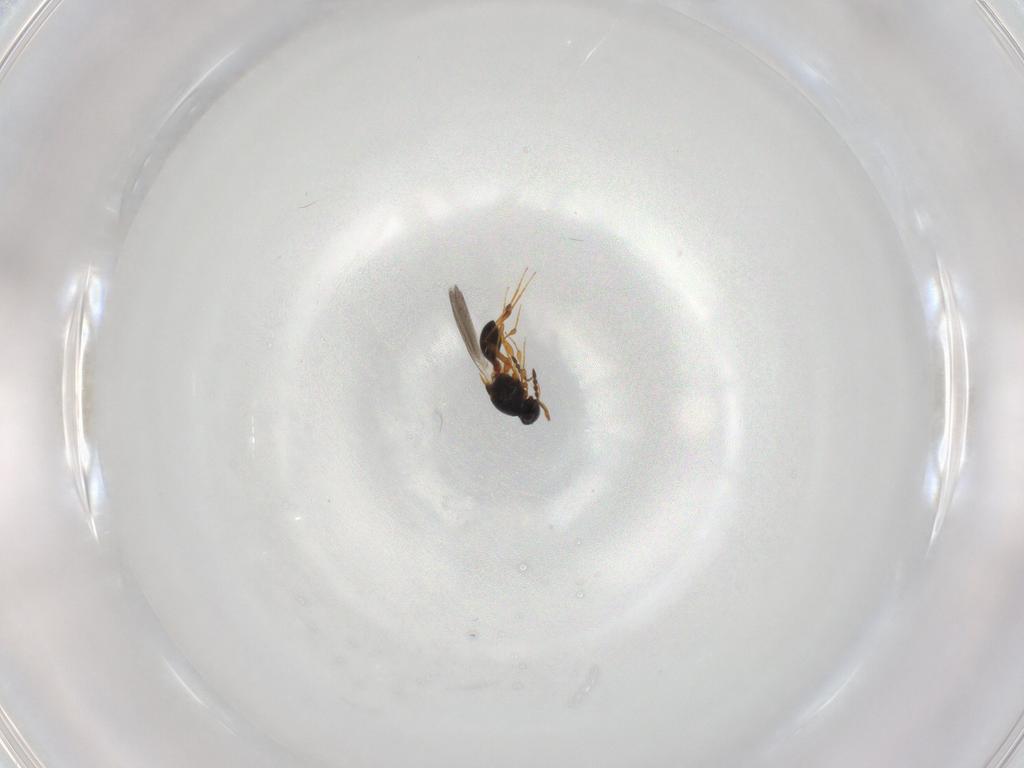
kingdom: Animalia
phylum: Arthropoda
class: Insecta
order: Hymenoptera
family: Platygastridae
